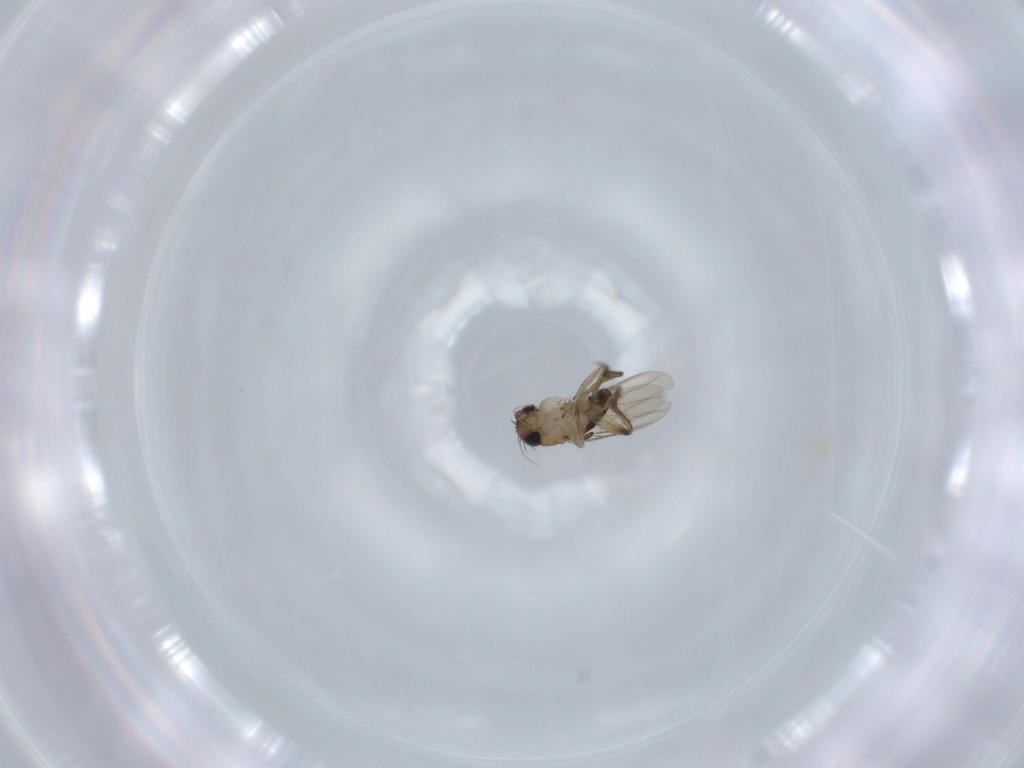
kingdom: Animalia
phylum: Arthropoda
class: Insecta
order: Diptera
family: Phoridae
